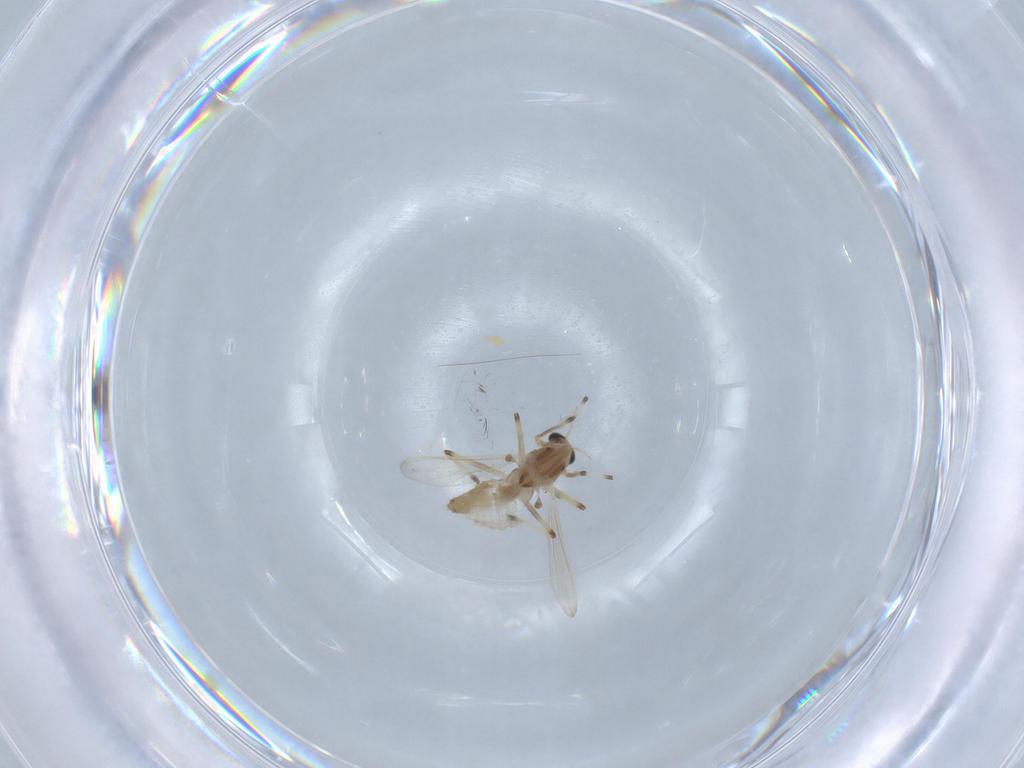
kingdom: Animalia
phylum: Arthropoda
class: Insecta
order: Diptera
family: Chironomidae
